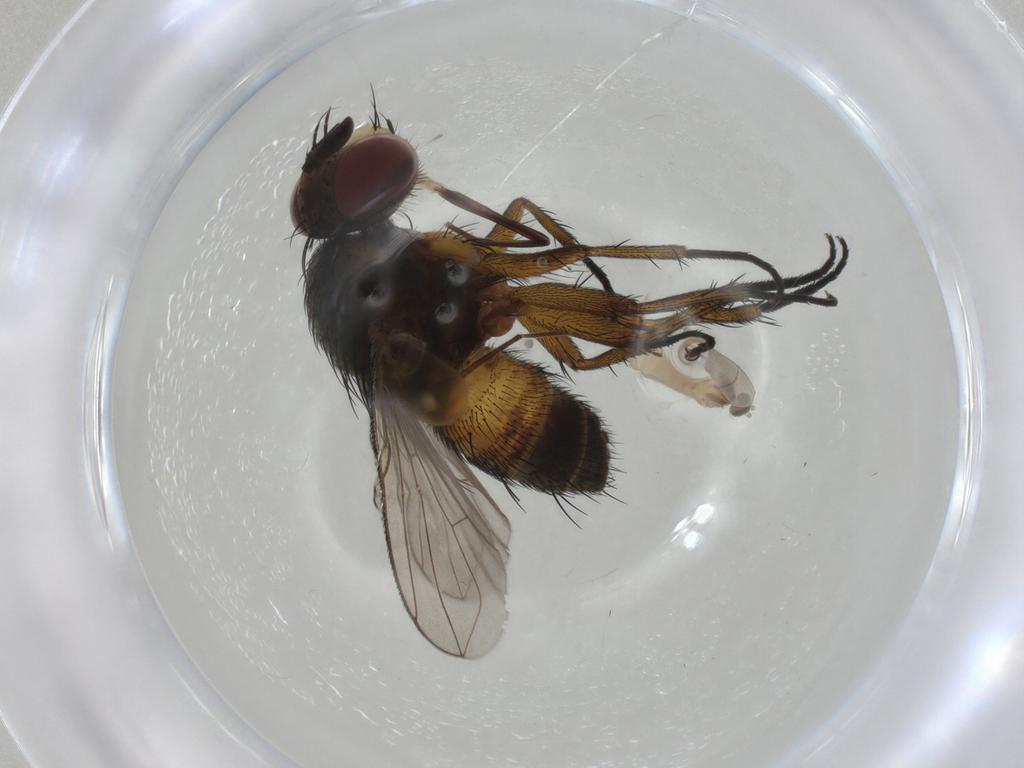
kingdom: Animalia
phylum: Arthropoda
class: Insecta
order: Diptera
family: Tachinidae
